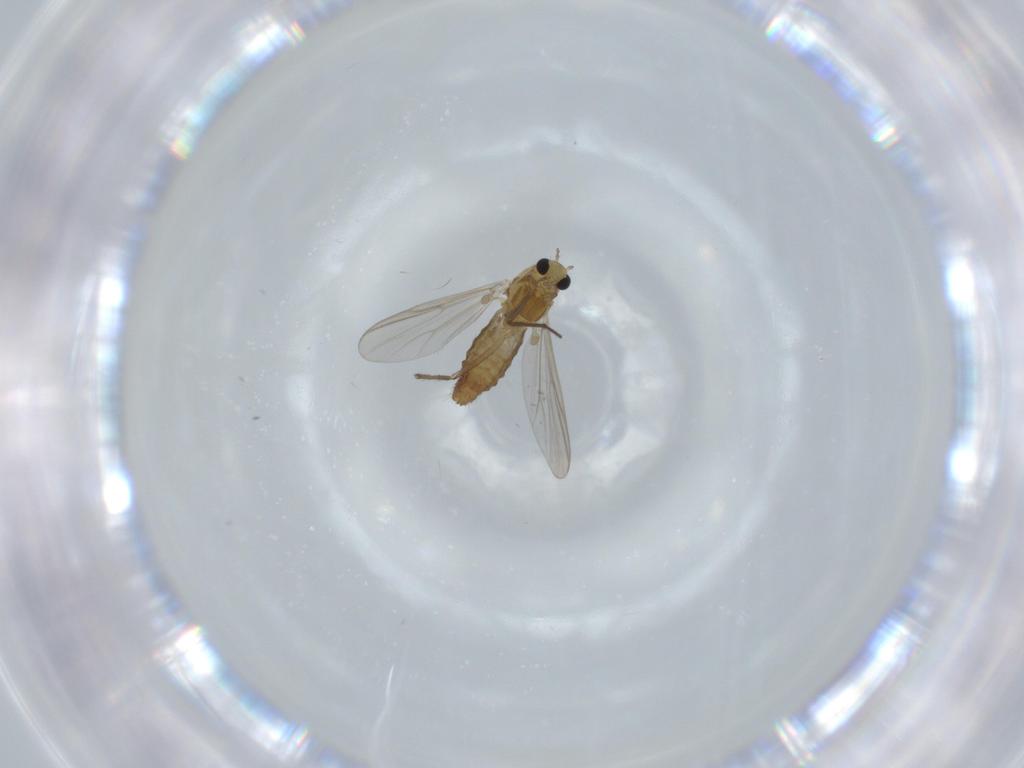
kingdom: Animalia
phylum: Arthropoda
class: Insecta
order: Diptera
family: Chironomidae
